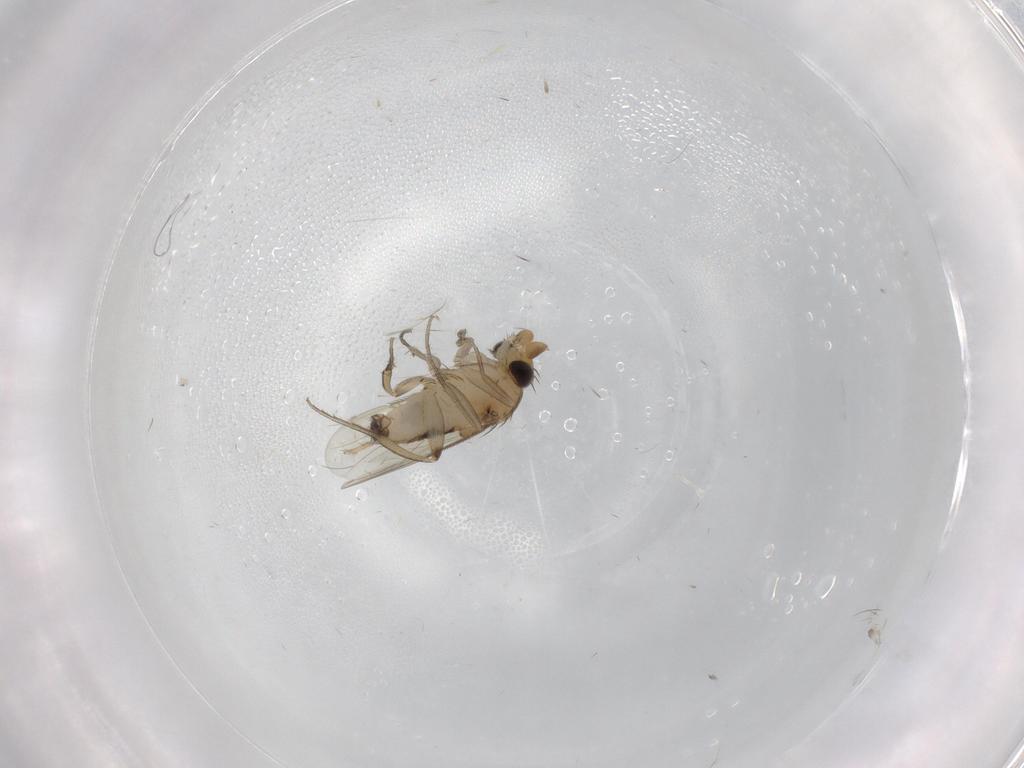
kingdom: Animalia
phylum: Arthropoda
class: Insecta
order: Diptera
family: Phoridae
